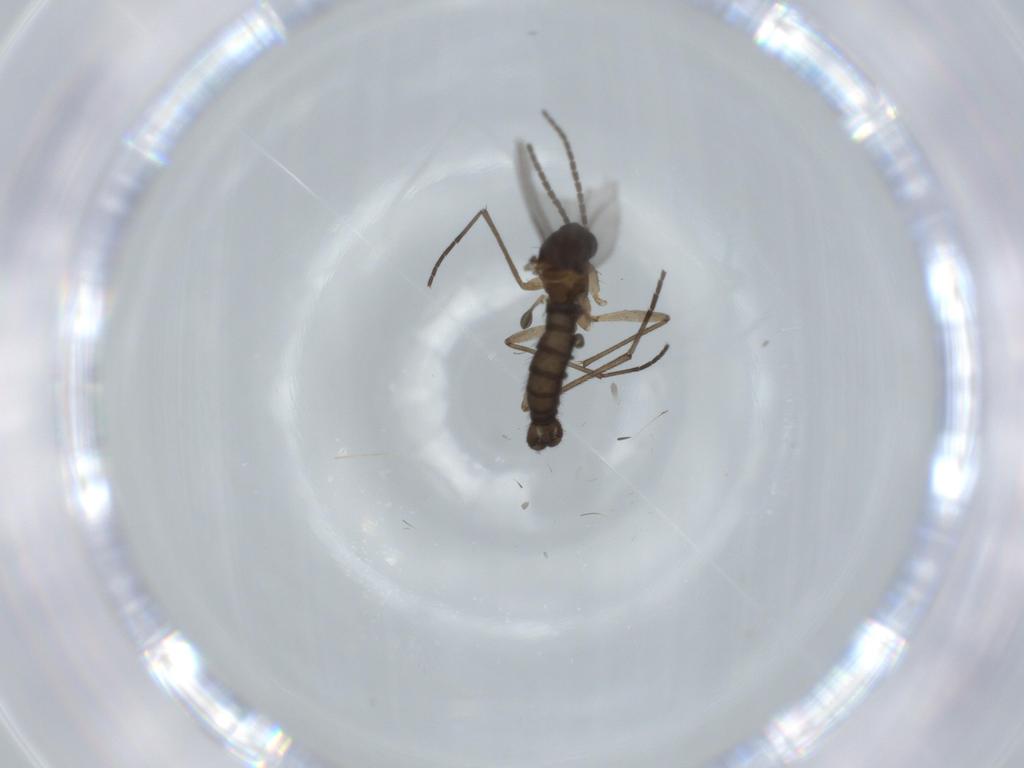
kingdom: Animalia
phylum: Arthropoda
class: Insecta
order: Diptera
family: Sciaridae
